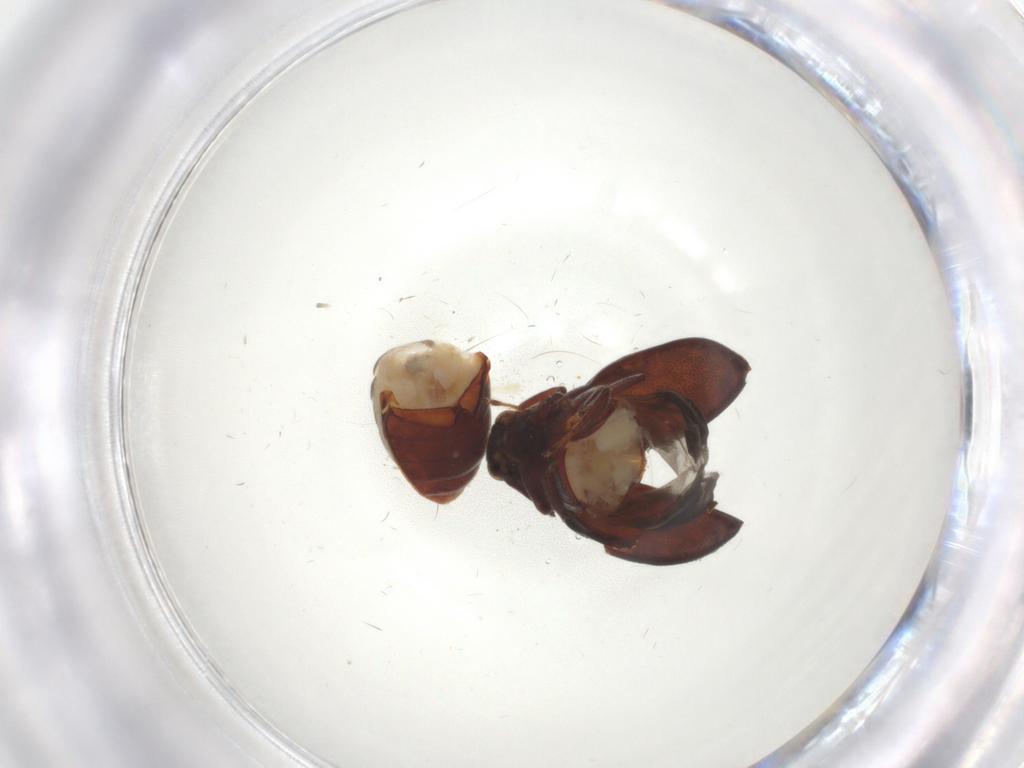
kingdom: Animalia
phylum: Arthropoda
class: Insecta
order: Coleoptera
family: Limnichidae
